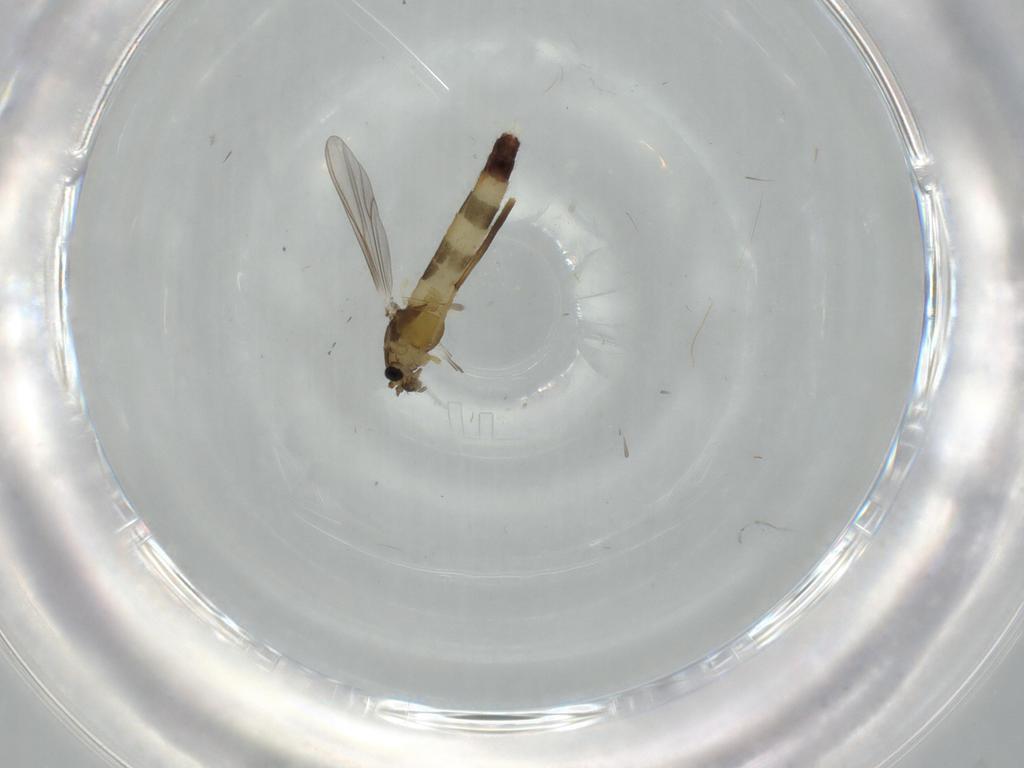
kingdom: Animalia
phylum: Arthropoda
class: Insecta
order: Diptera
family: Chironomidae
